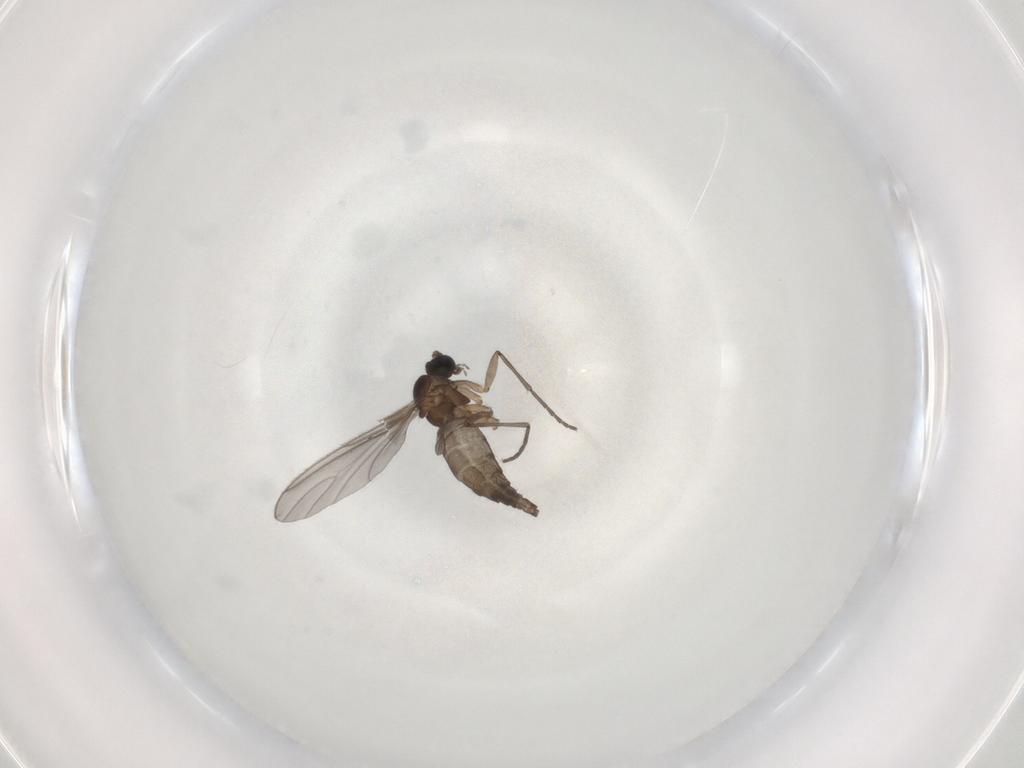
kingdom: Animalia
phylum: Arthropoda
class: Insecta
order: Diptera
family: Sciaridae
